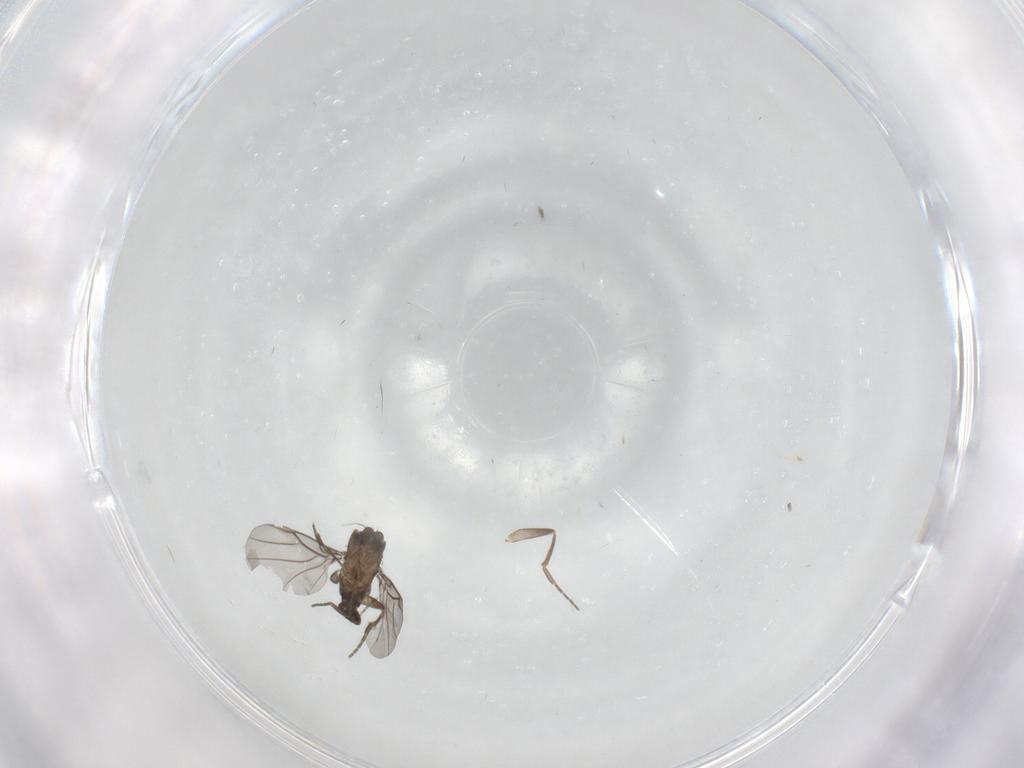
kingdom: Animalia
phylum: Arthropoda
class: Insecta
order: Diptera
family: Phoridae
